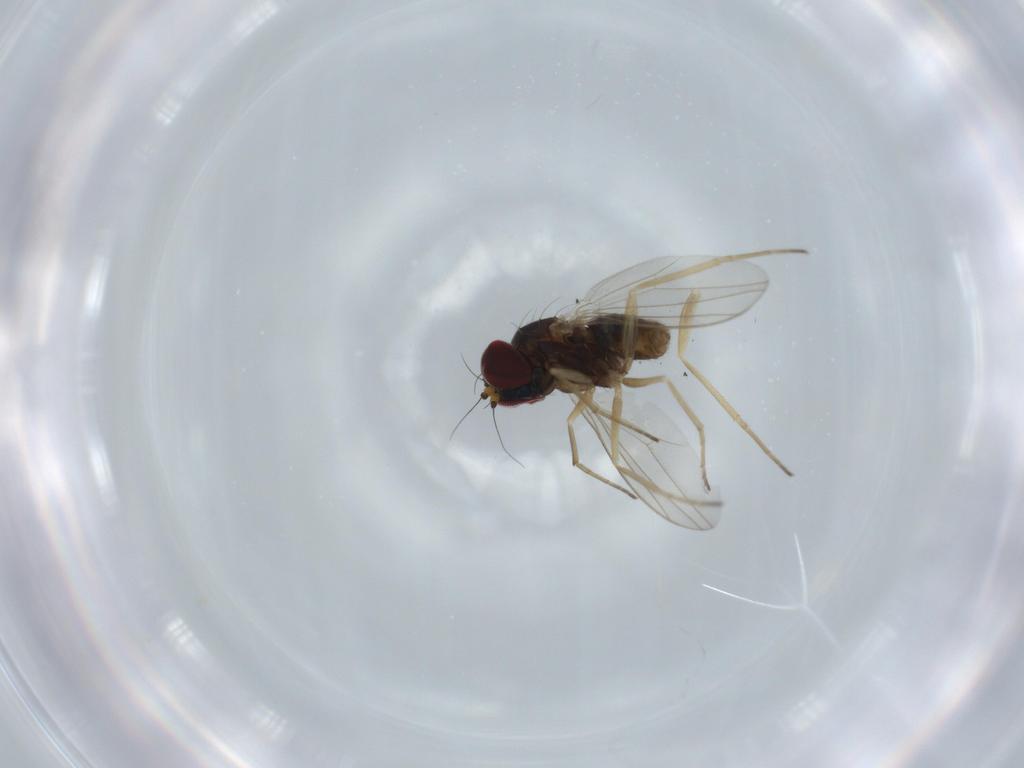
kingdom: Animalia
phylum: Arthropoda
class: Insecta
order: Diptera
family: Dolichopodidae
